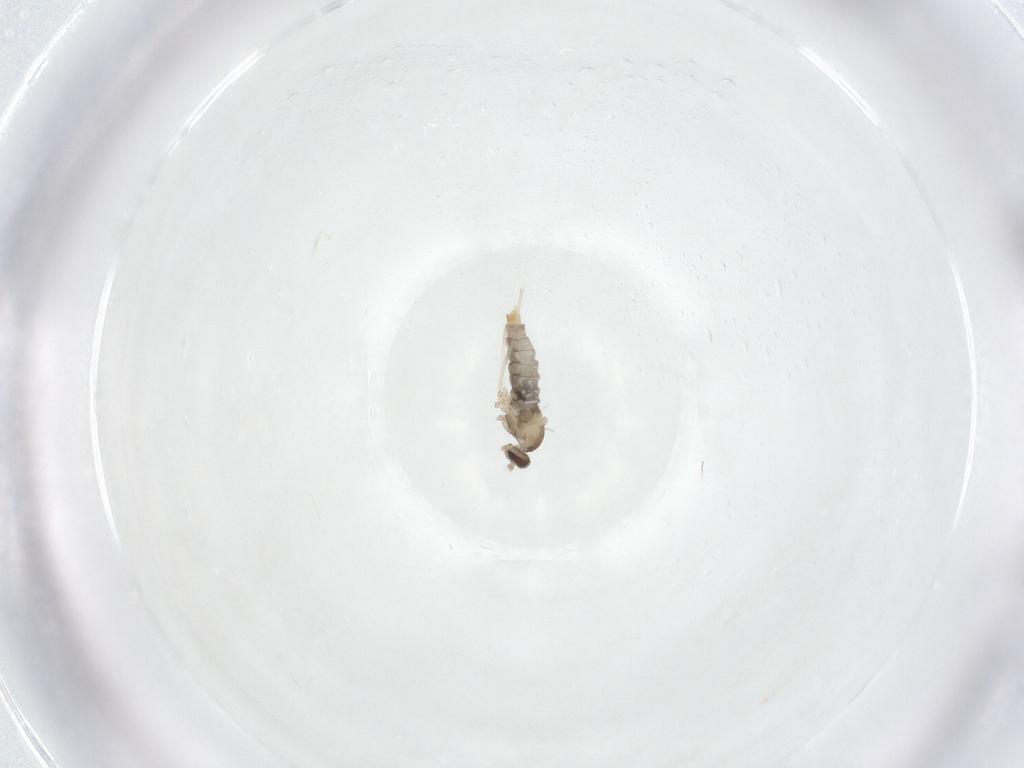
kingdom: Animalia
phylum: Arthropoda
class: Insecta
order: Diptera
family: Cecidomyiidae
